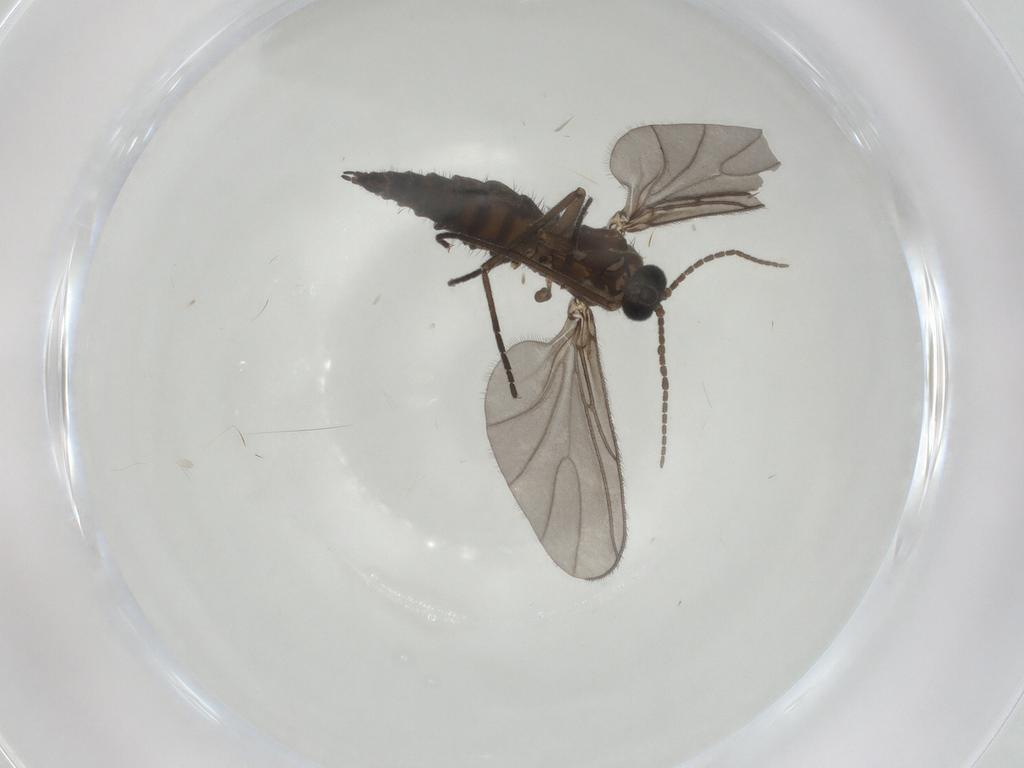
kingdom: Animalia
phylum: Arthropoda
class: Insecta
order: Diptera
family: Sciaridae
